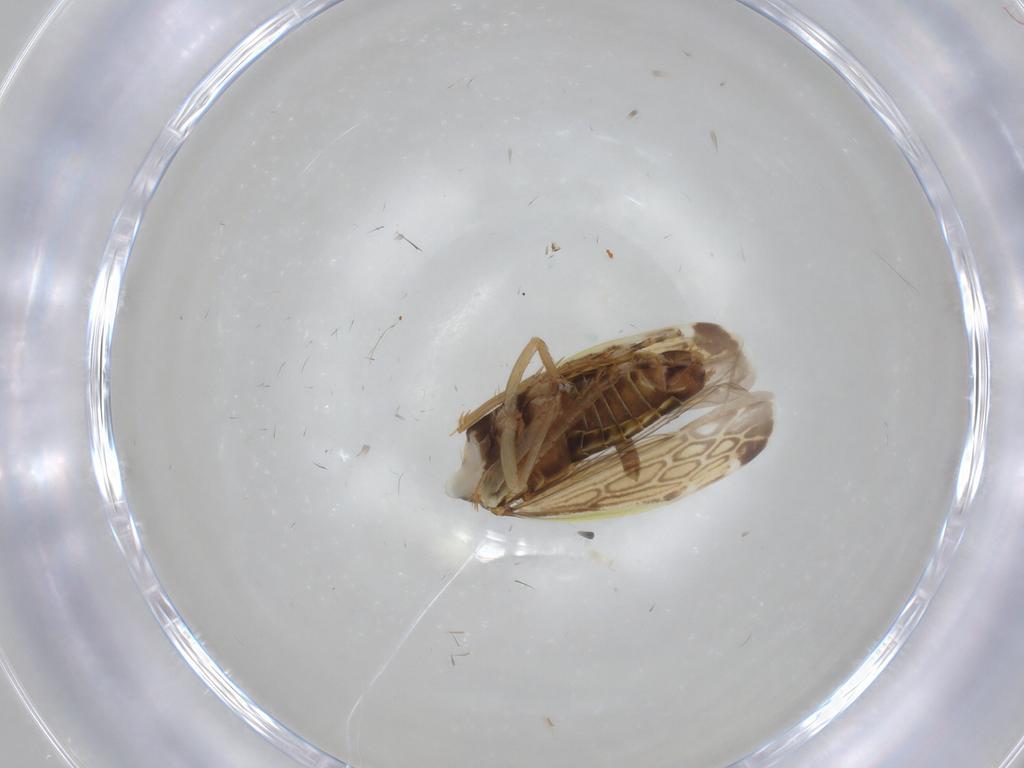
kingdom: Animalia
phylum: Arthropoda
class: Insecta
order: Hemiptera
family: Cicadellidae
